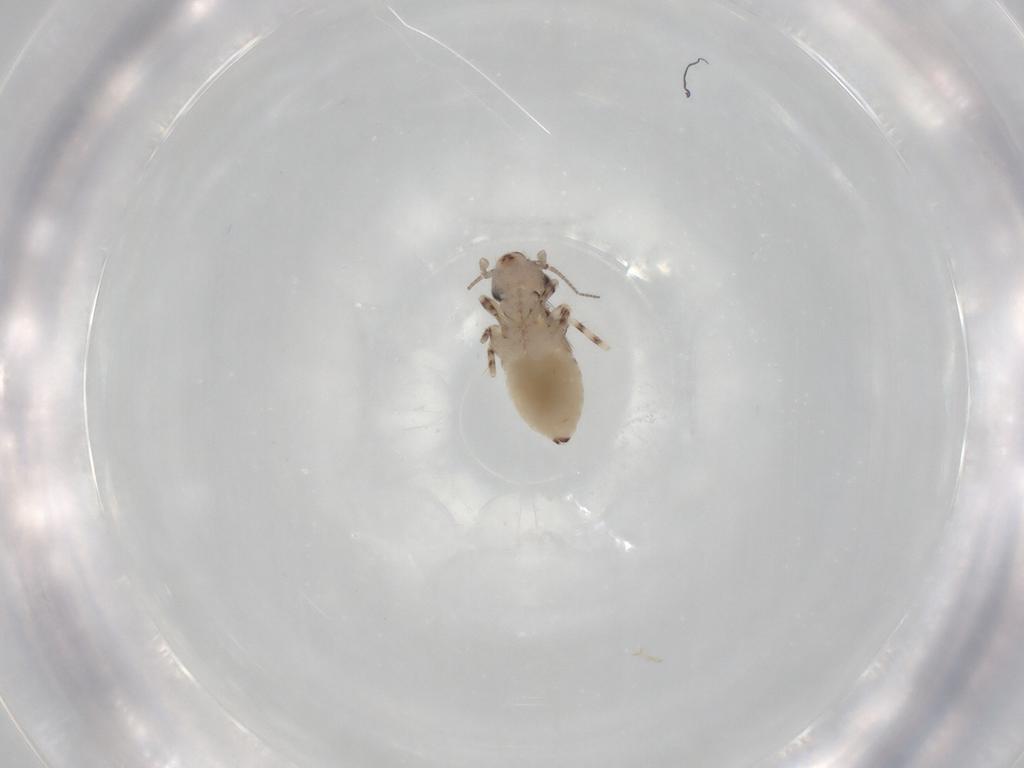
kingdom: Animalia
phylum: Arthropoda
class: Insecta
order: Psocodea
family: Lepidopsocidae
